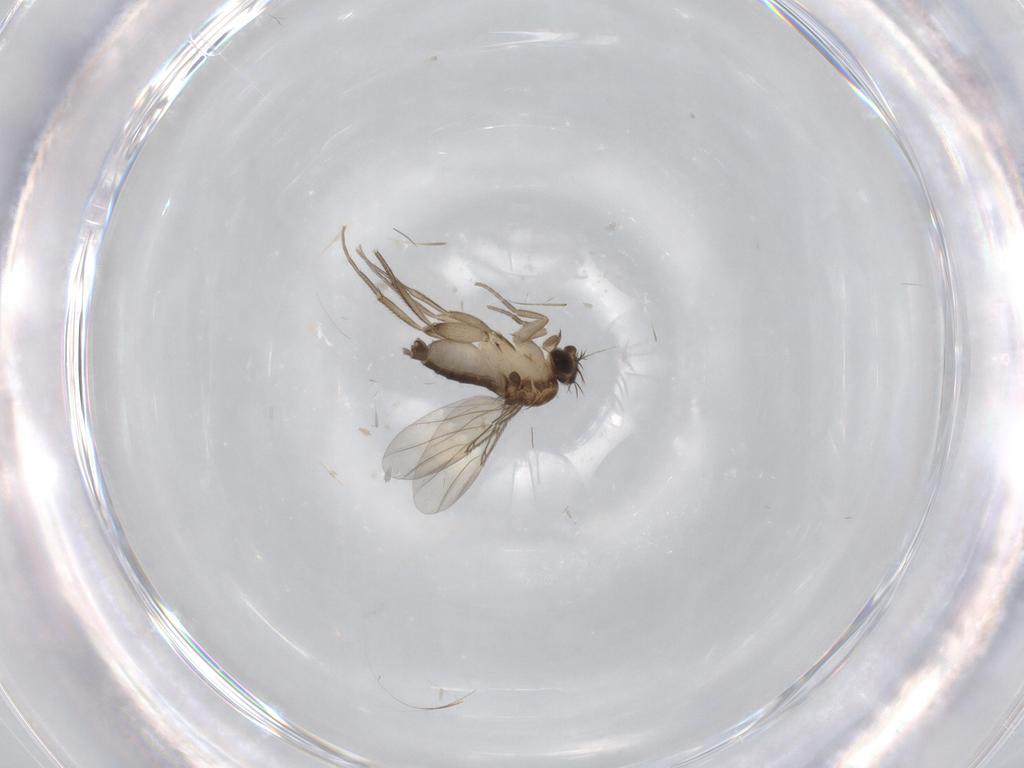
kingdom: Animalia
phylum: Arthropoda
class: Insecta
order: Diptera
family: Phoridae
